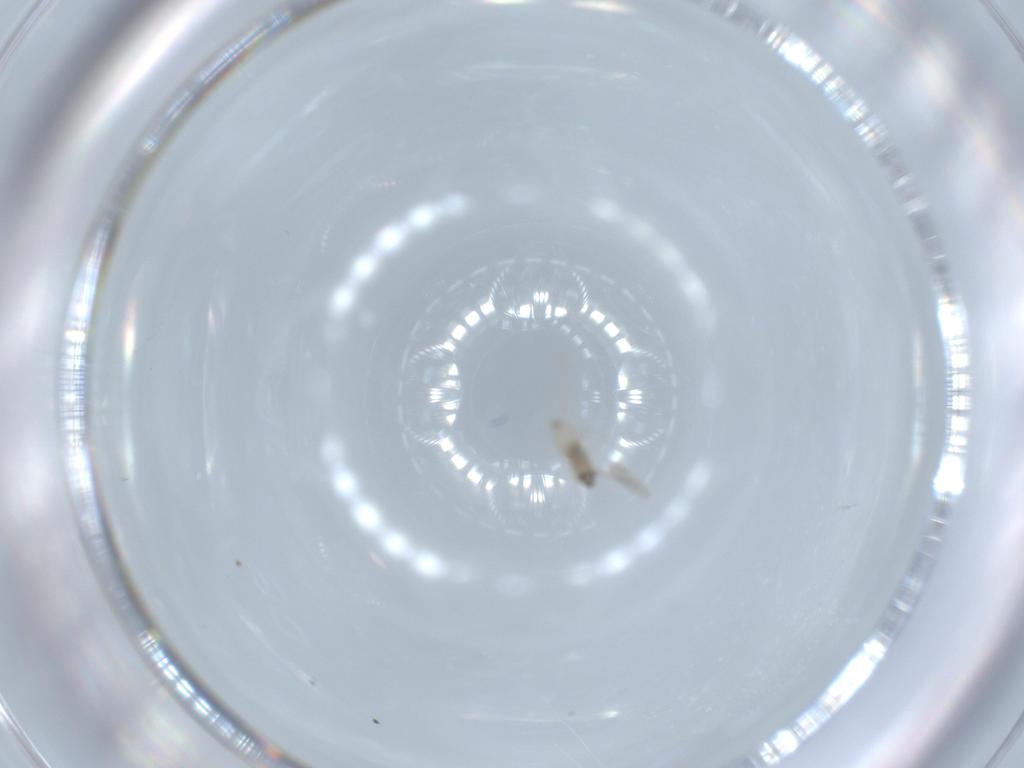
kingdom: Animalia
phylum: Arthropoda
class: Insecta
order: Diptera
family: Cecidomyiidae
